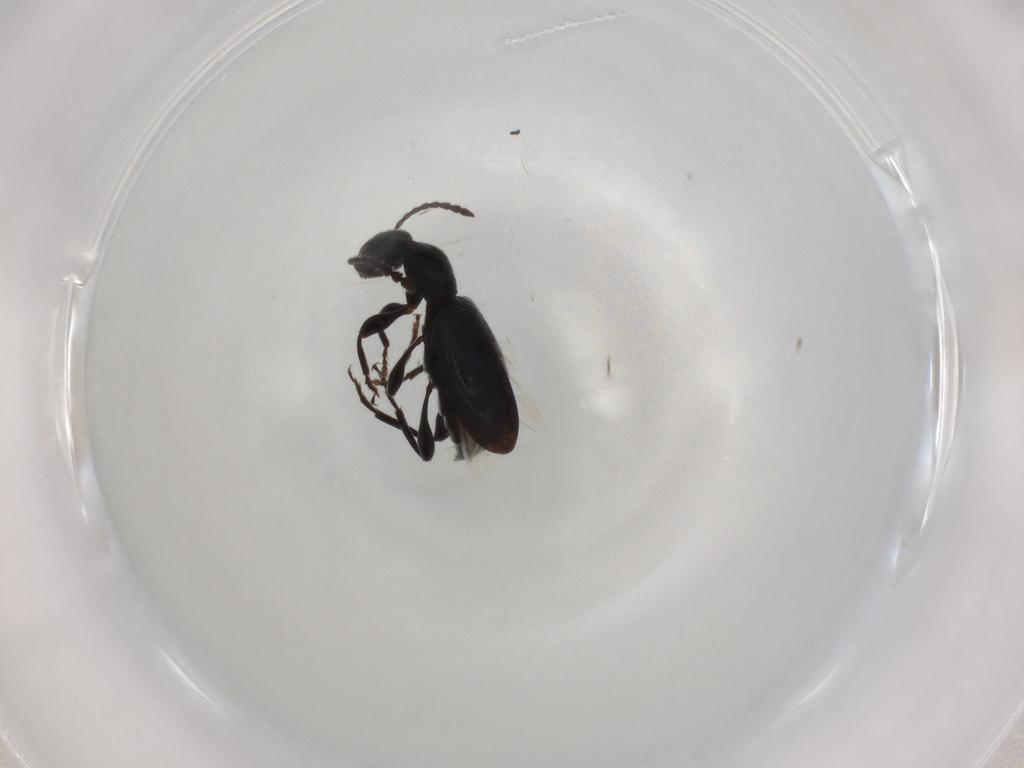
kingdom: Animalia
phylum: Arthropoda
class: Insecta
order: Coleoptera
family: Anthicidae
